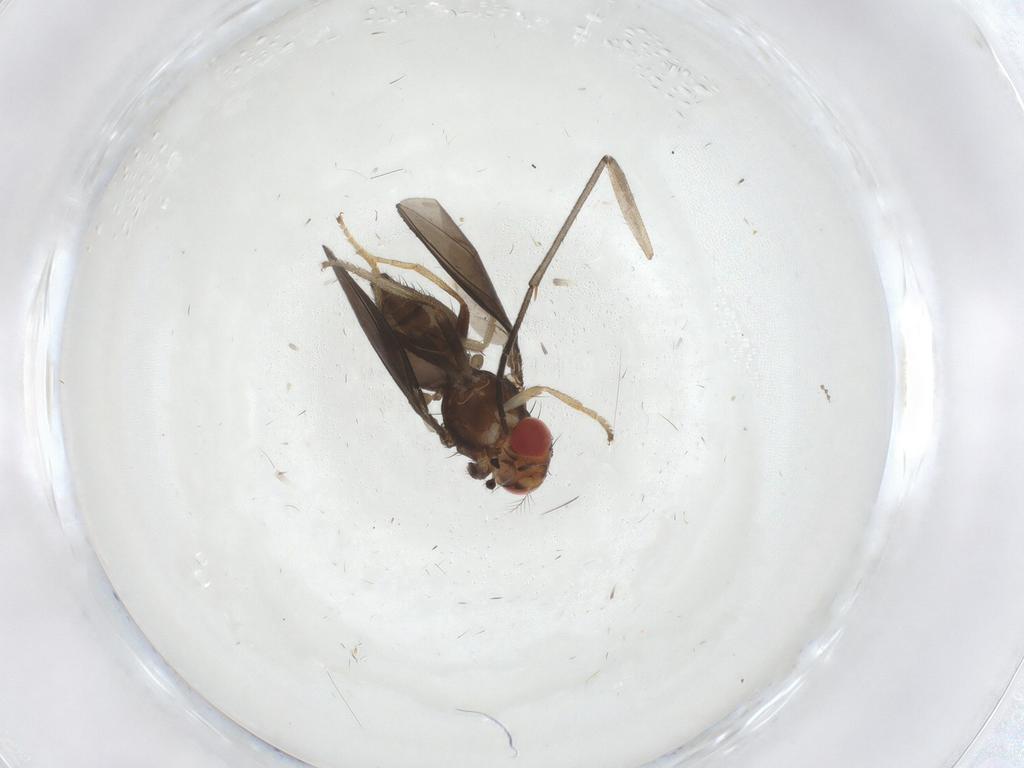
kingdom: Animalia
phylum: Arthropoda
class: Insecta
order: Diptera
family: Drosophilidae
